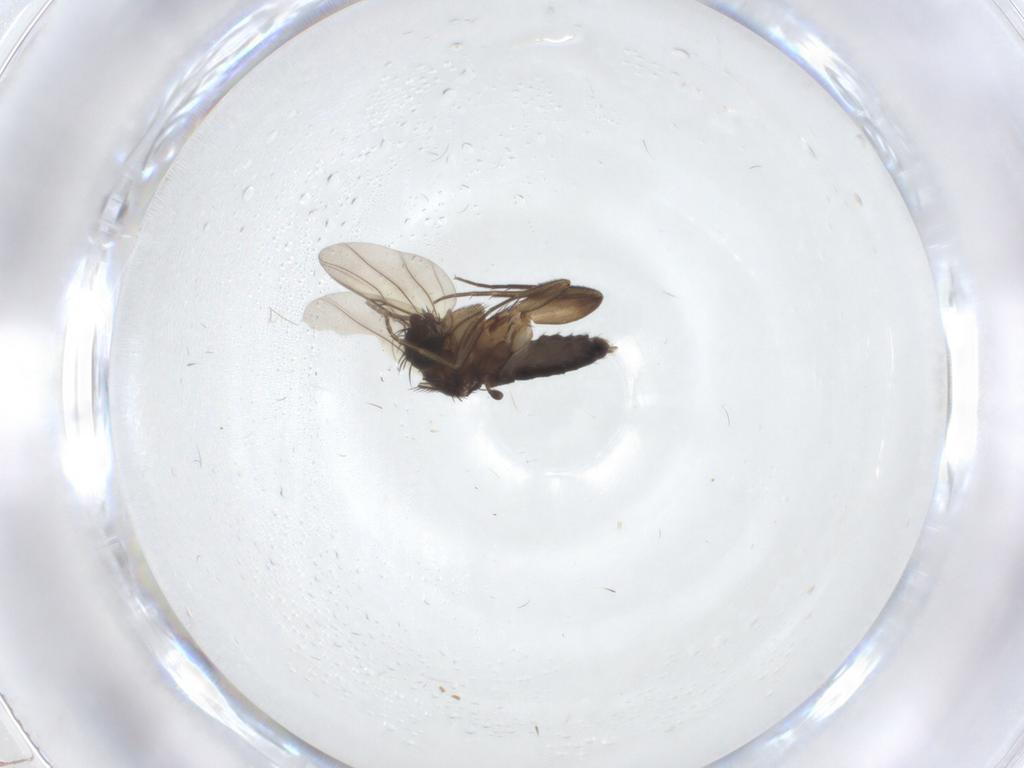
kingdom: Animalia
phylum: Arthropoda
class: Insecta
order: Diptera
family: Phoridae
